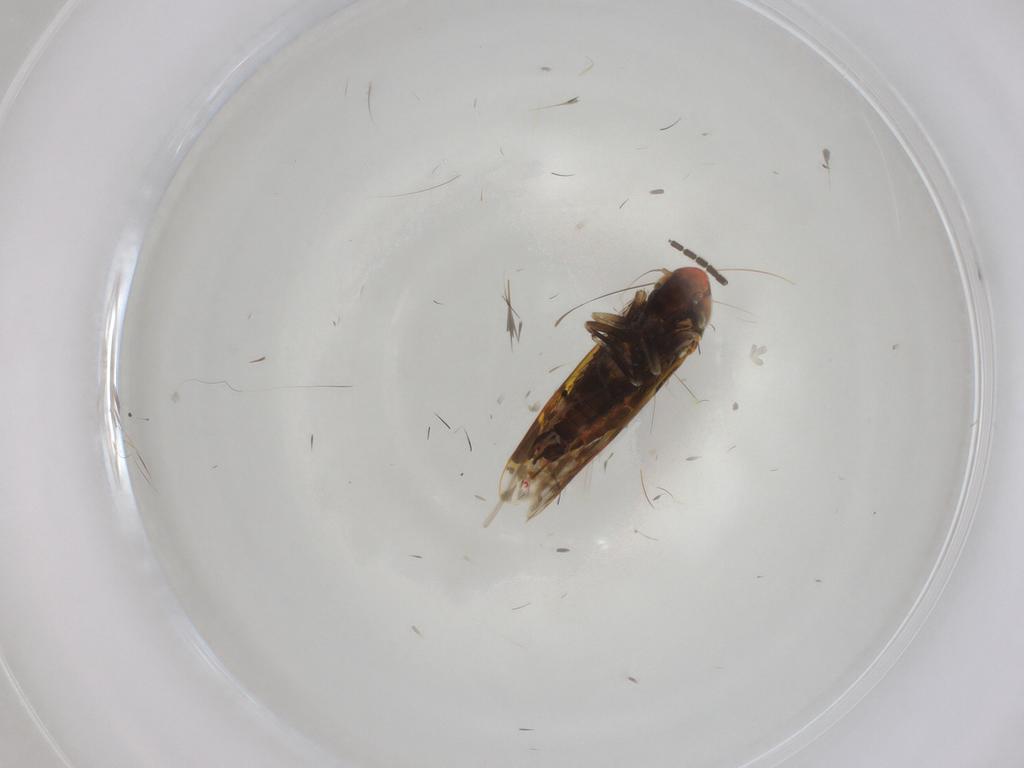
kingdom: Animalia
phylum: Arthropoda
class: Insecta
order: Hemiptera
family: Cicadellidae
